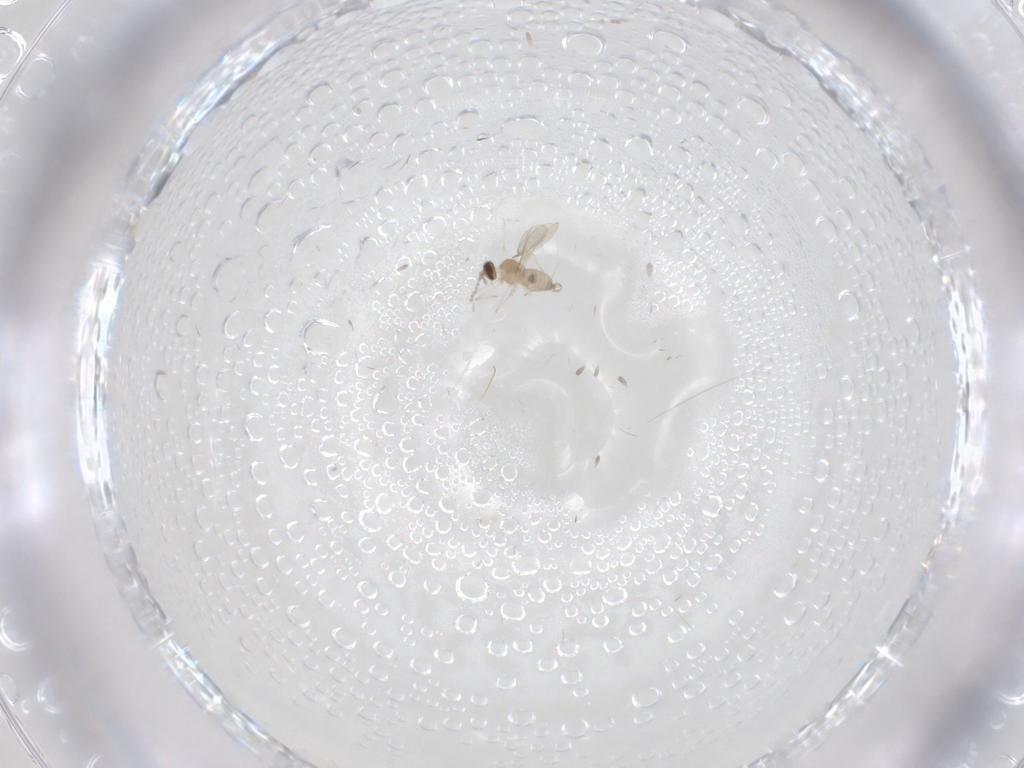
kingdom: Animalia
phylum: Arthropoda
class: Insecta
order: Diptera
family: Cecidomyiidae
